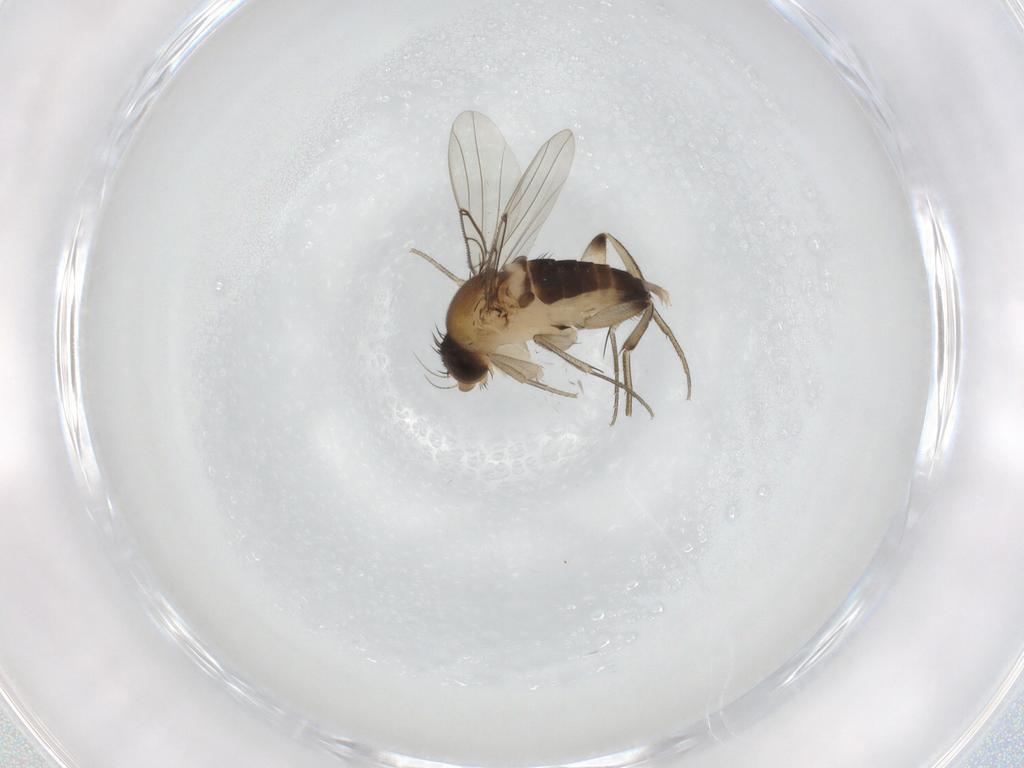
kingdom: Animalia
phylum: Arthropoda
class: Insecta
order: Diptera
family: Phoridae
